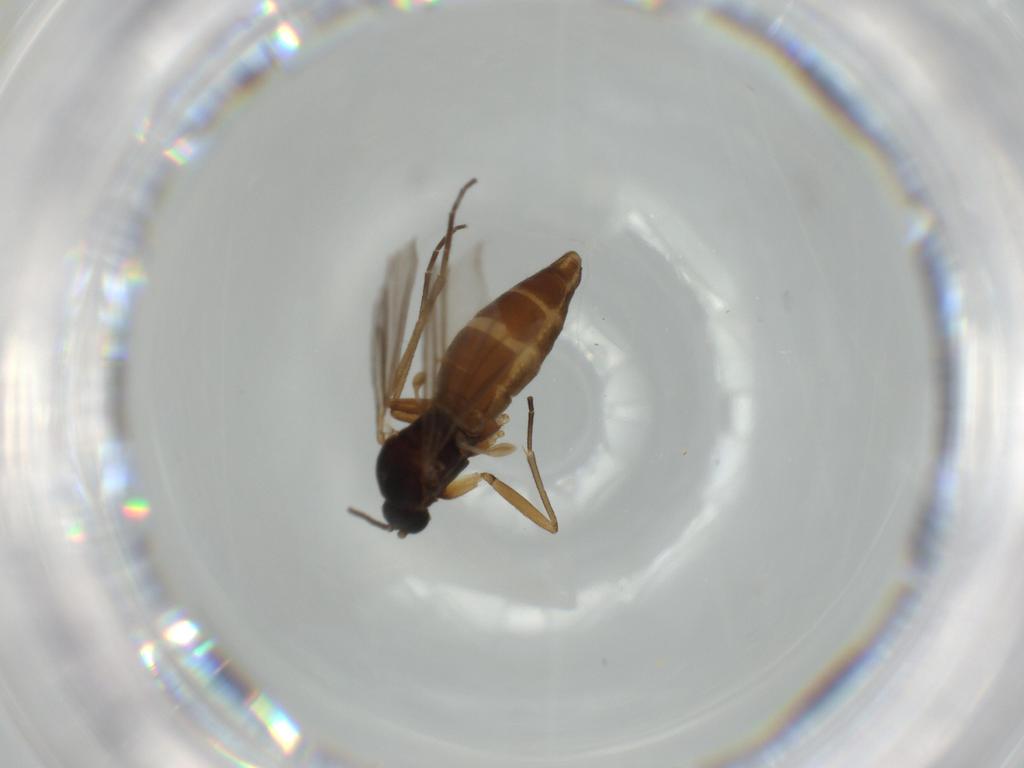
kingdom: Animalia
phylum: Arthropoda
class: Insecta
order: Diptera
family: Sciaridae
